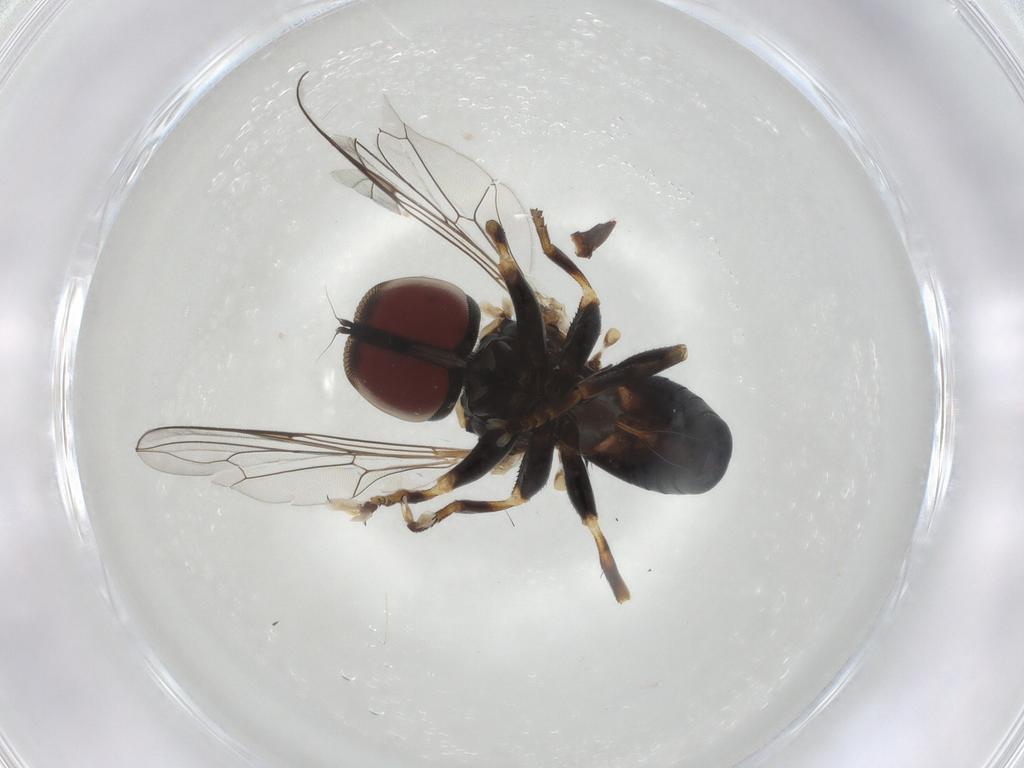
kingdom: Animalia
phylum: Arthropoda
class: Insecta
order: Diptera
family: Pipunculidae
